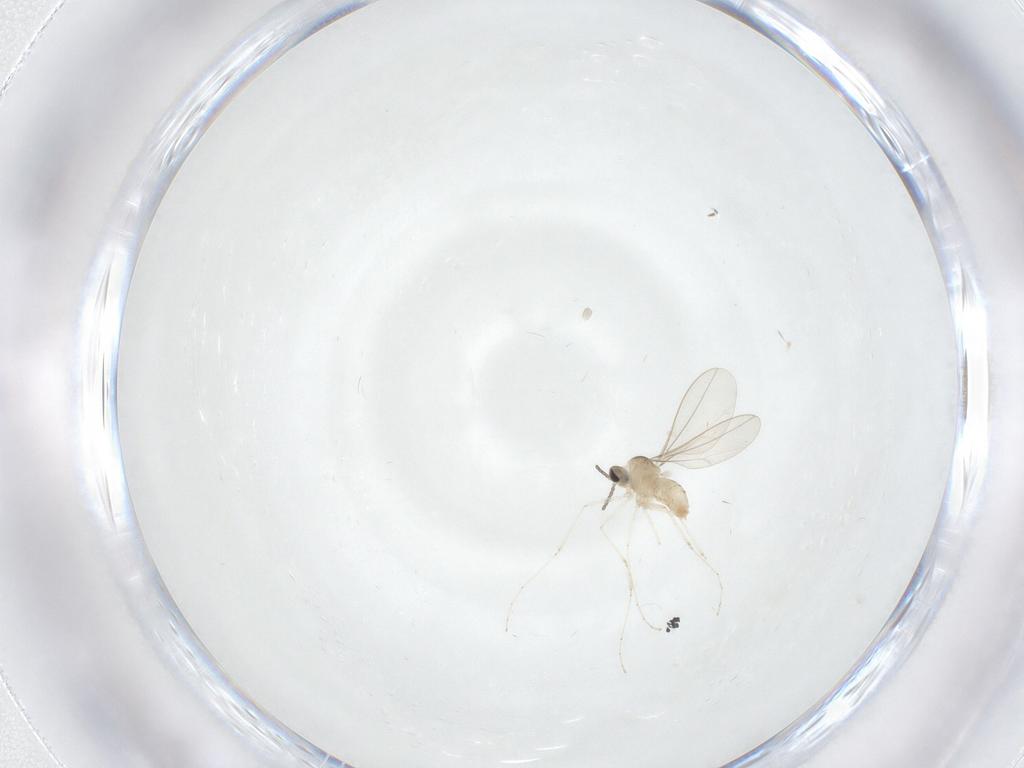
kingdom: Animalia
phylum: Arthropoda
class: Insecta
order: Diptera
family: Cecidomyiidae
